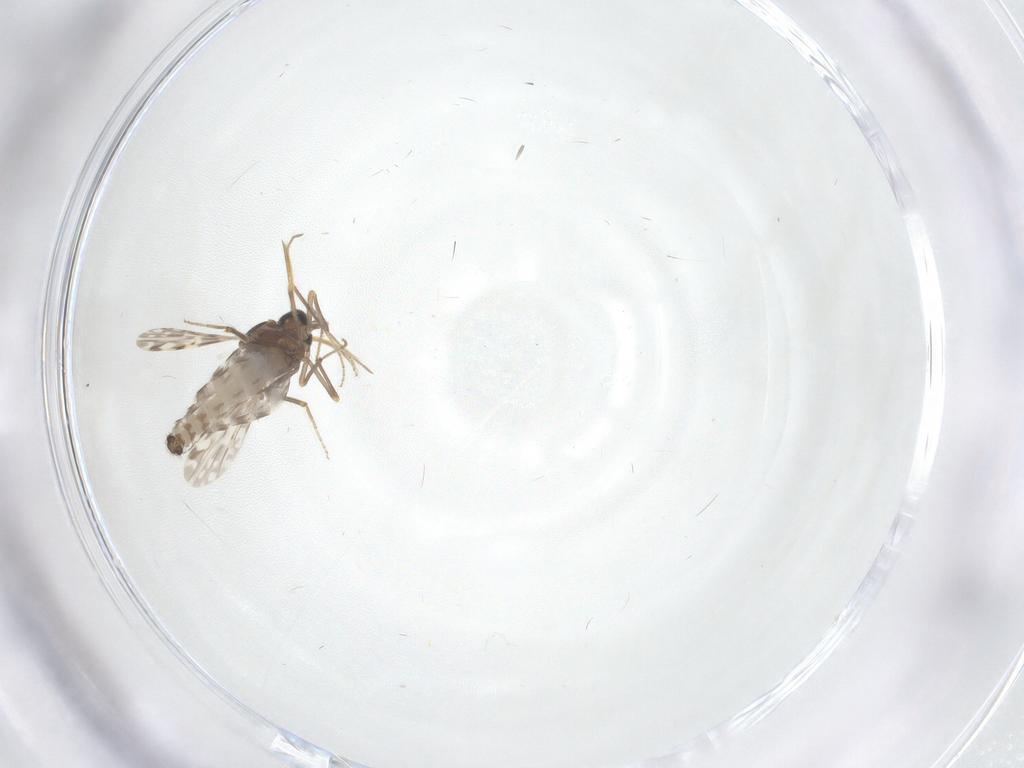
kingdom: Animalia
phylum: Arthropoda
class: Insecta
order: Diptera
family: Ceratopogonidae
